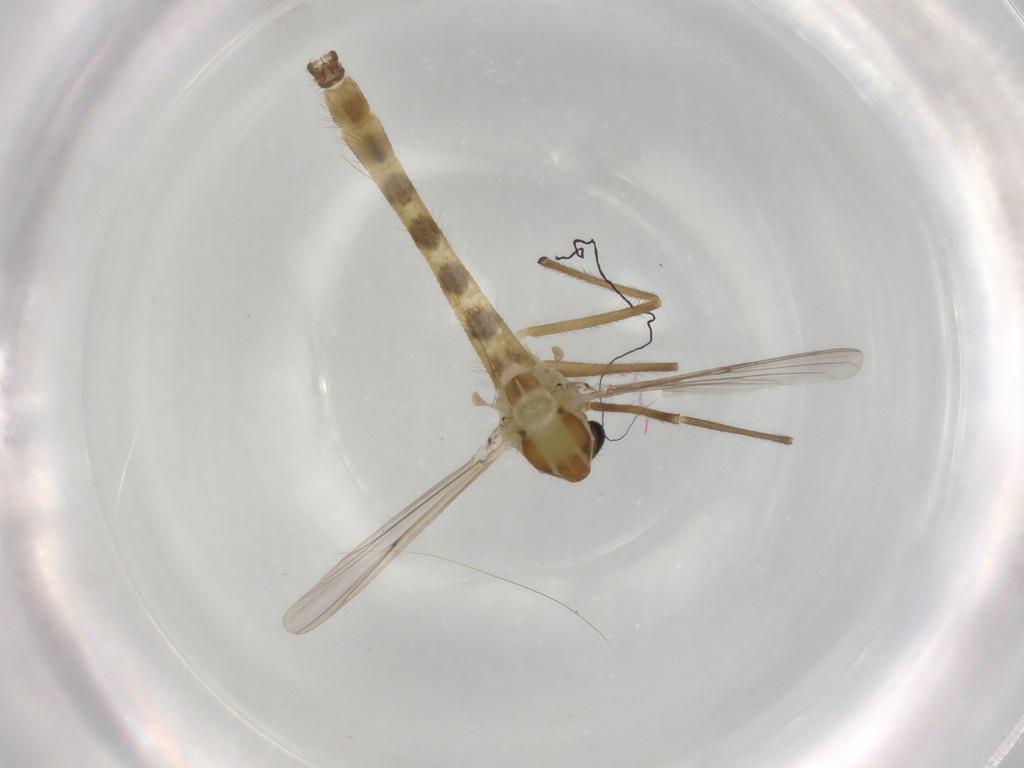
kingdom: Animalia
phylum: Arthropoda
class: Insecta
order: Diptera
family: Chironomidae
